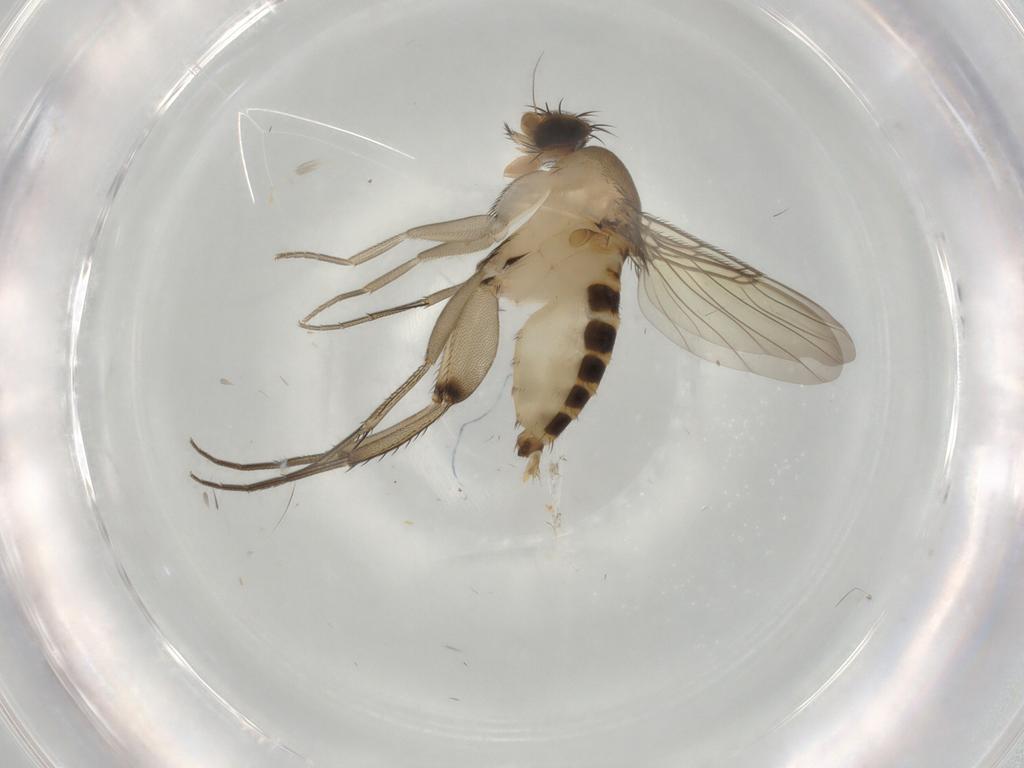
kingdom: Animalia
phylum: Arthropoda
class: Insecta
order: Diptera
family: Phoridae
